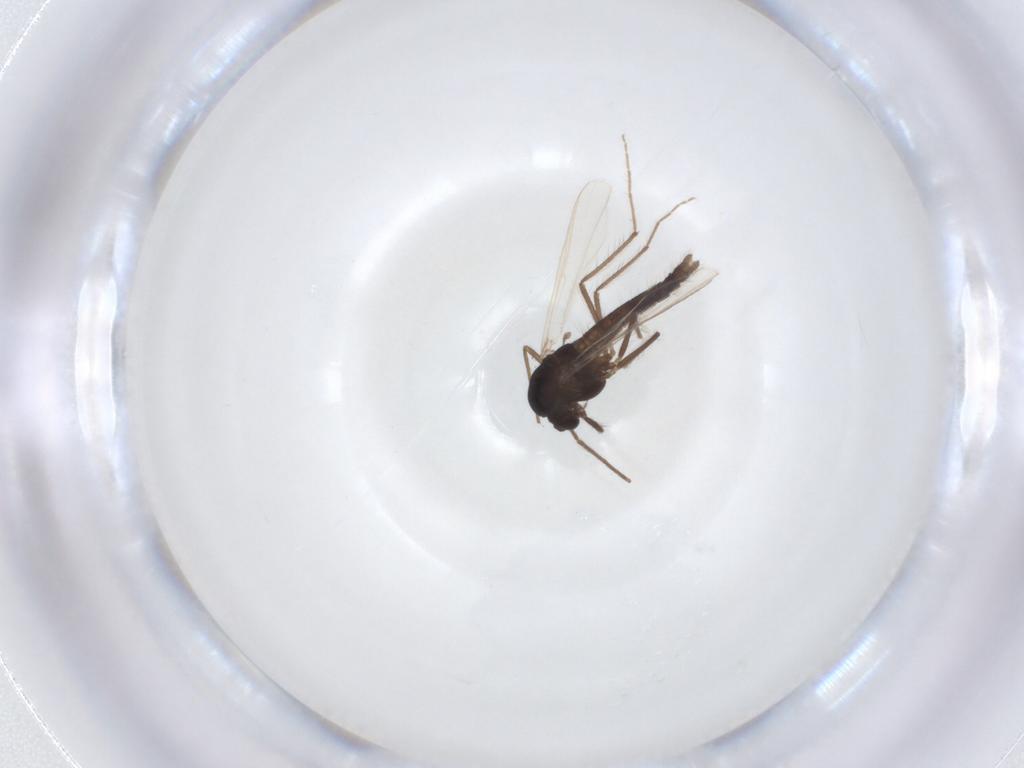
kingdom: Animalia
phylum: Arthropoda
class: Insecta
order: Diptera
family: Chironomidae
